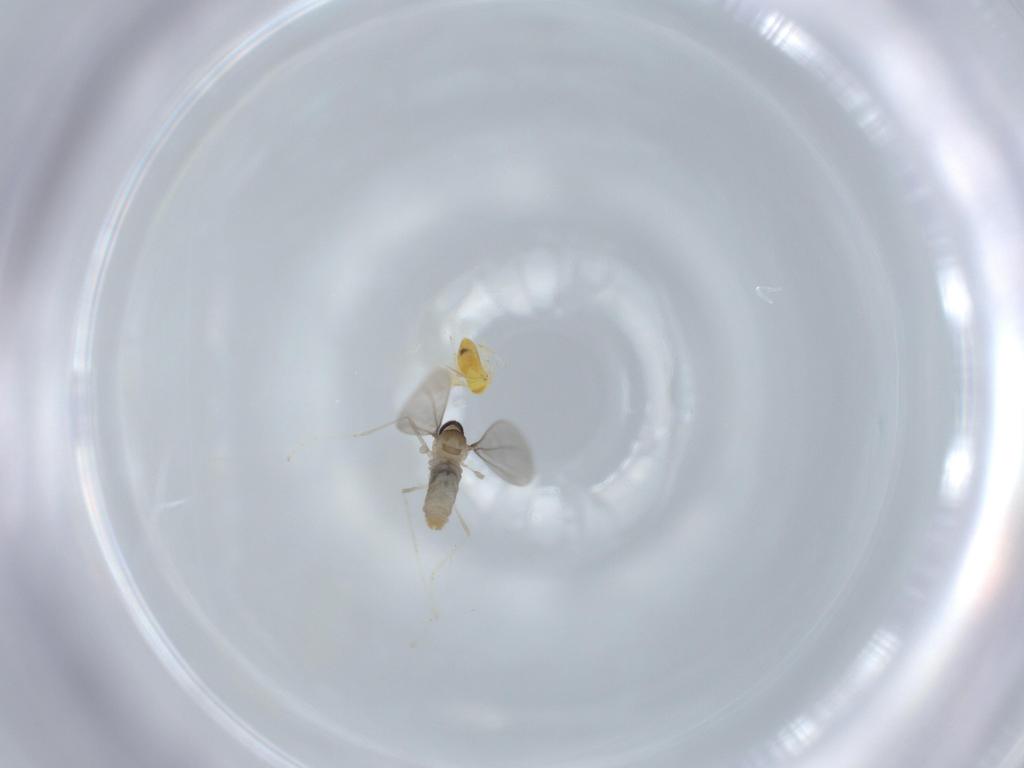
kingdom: Animalia
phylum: Arthropoda
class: Insecta
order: Diptera
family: Cecidomyiidae
